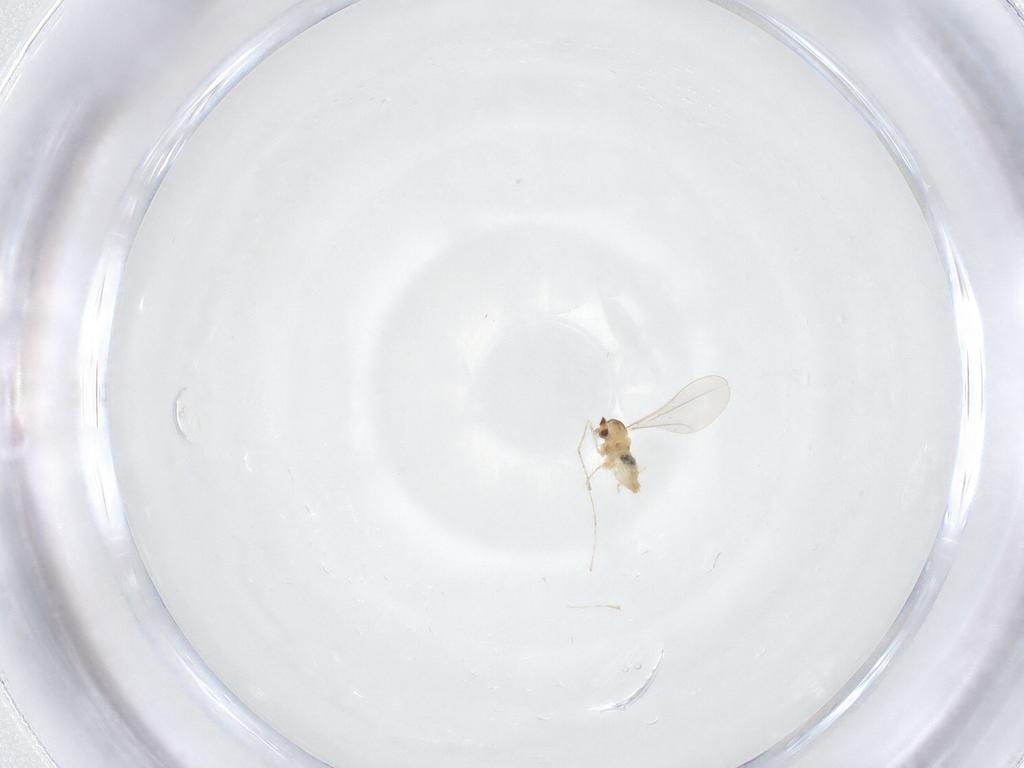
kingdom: Animalia
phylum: Arthropoda
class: Insecta
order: Diptera
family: Cecidomyiidae
